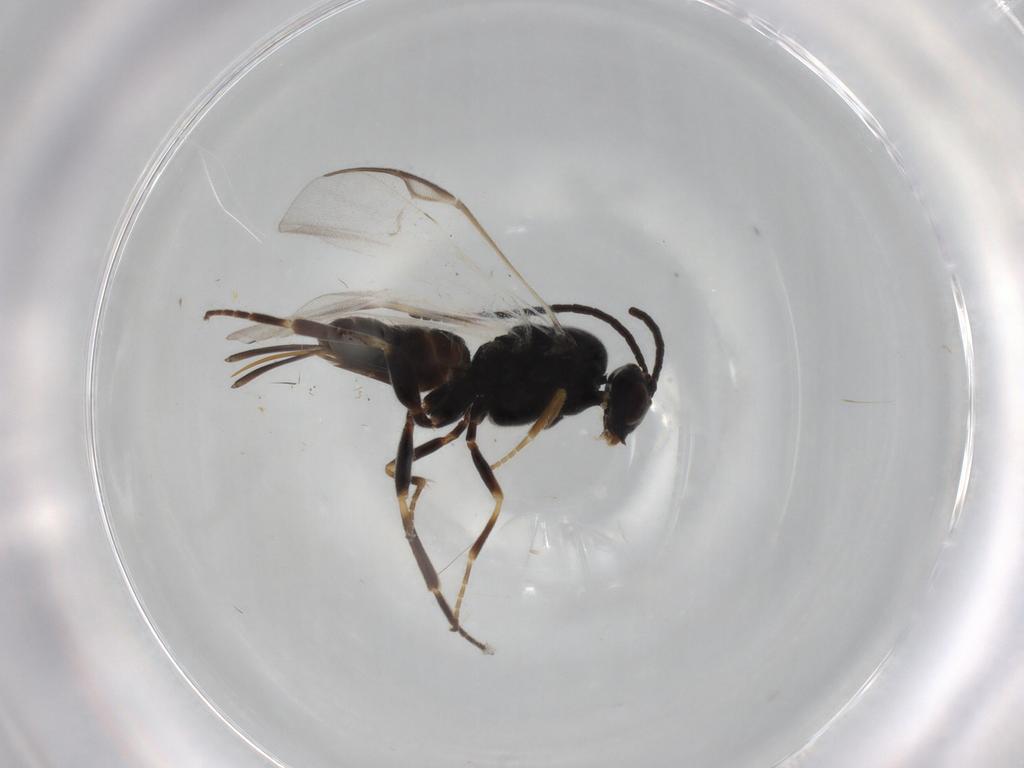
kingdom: Animalia
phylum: Arthropoda
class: Insecta
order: Hymenoptera
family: Braconidae
